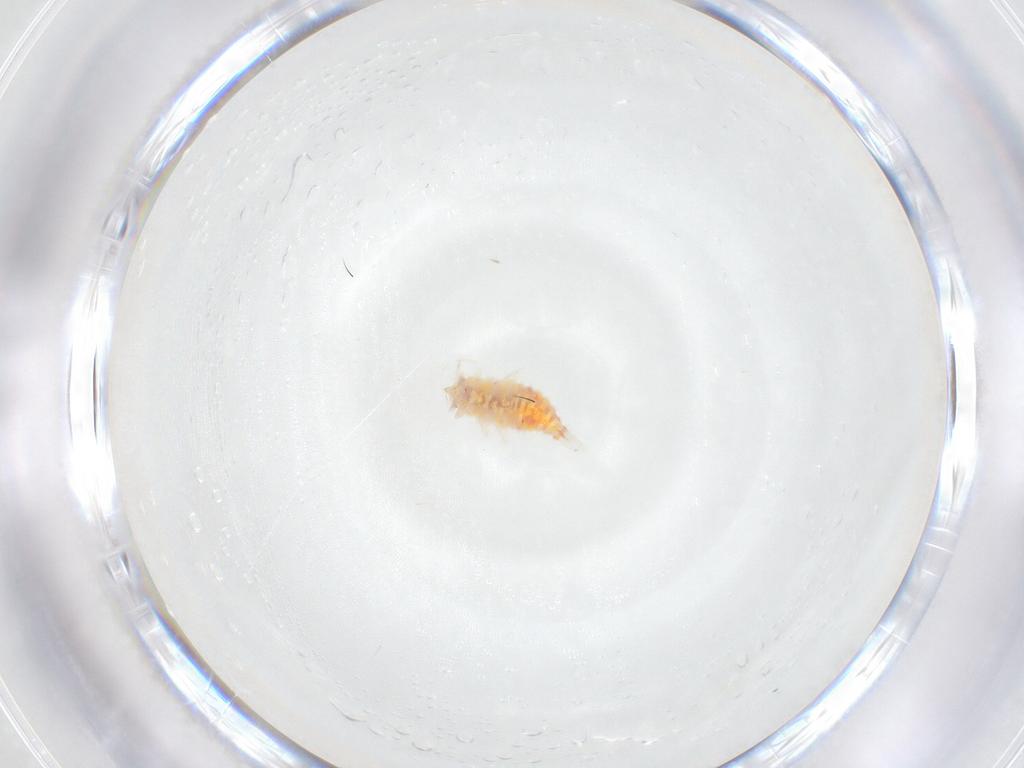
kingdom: Animalia
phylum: Arthropoda
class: Insecta
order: Neuroptera
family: Coniopterygidae
